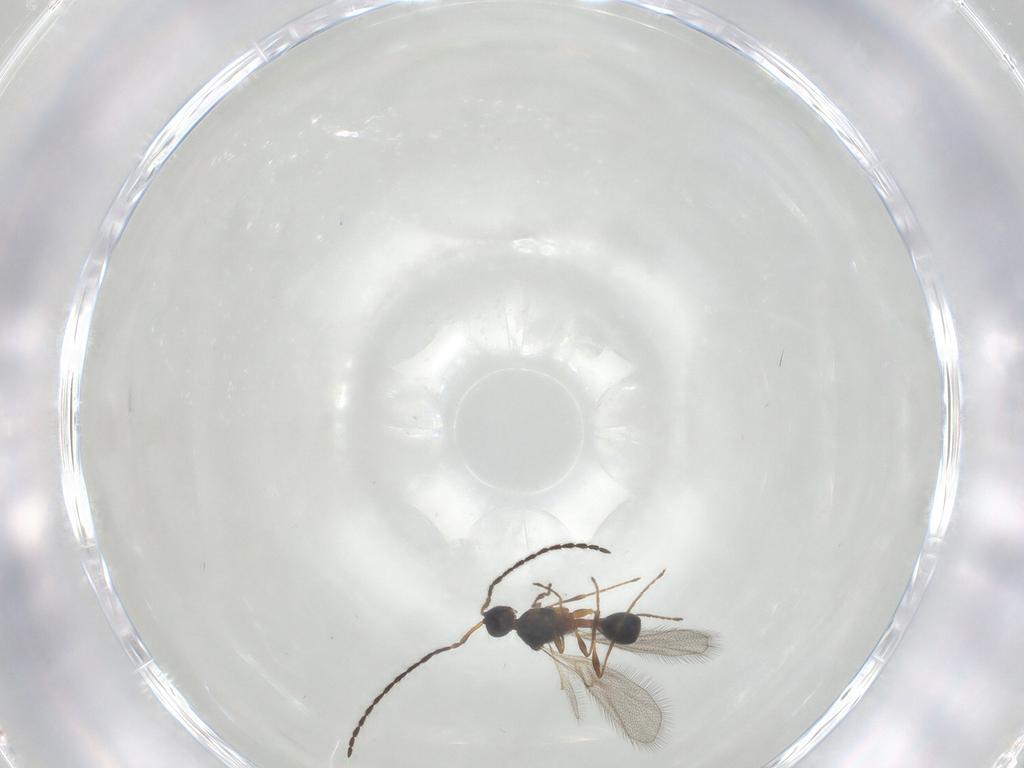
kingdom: Animalia
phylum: Arthropoda
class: Insecta
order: Hymenoptera
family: Diapriidae
